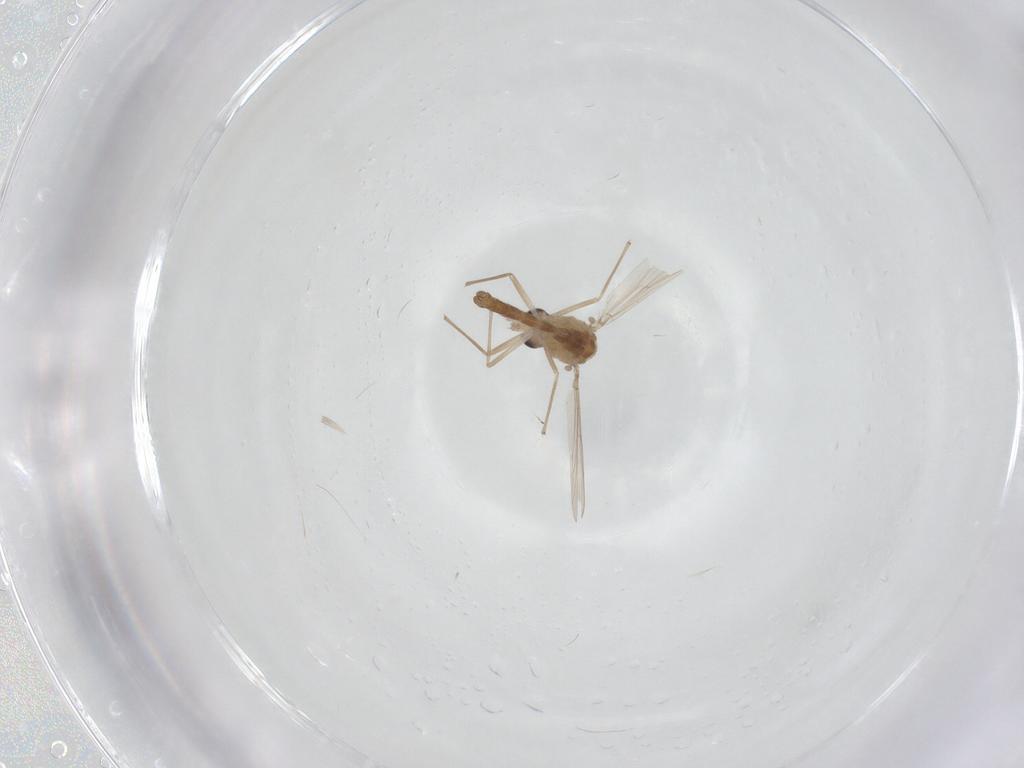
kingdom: Animalia
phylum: Arthropoda
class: Insecta
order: Diptera
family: Chironomidae
